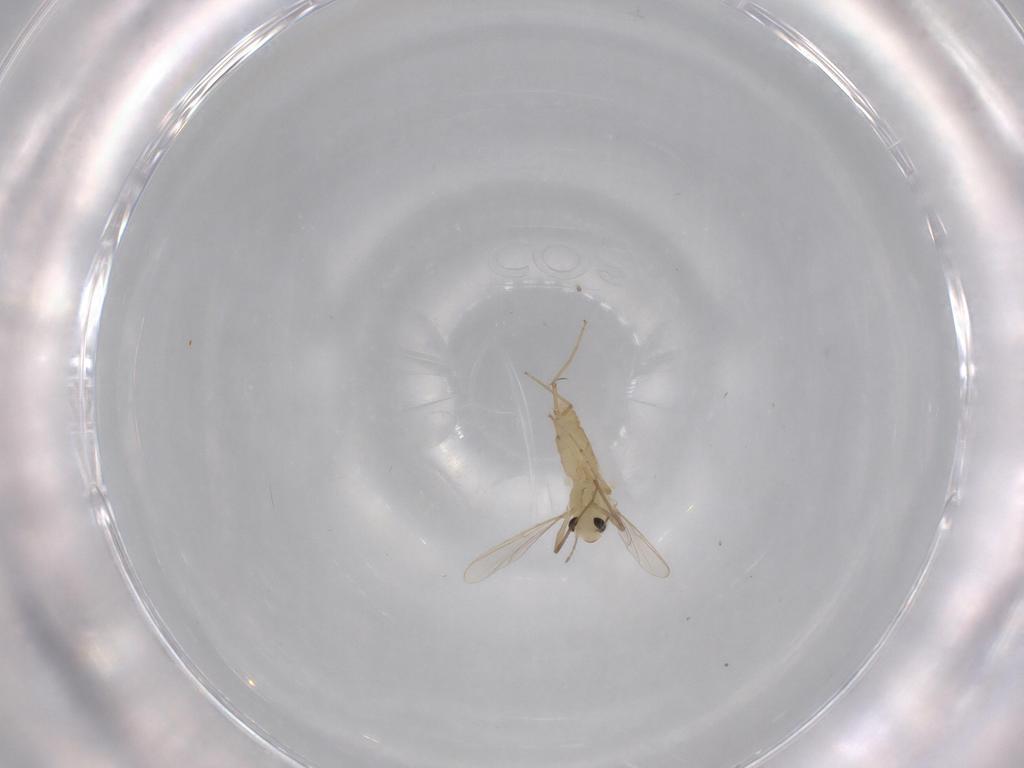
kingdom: Animalia
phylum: Arthropoda
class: Insecta
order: Diptera
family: Chironomidae
